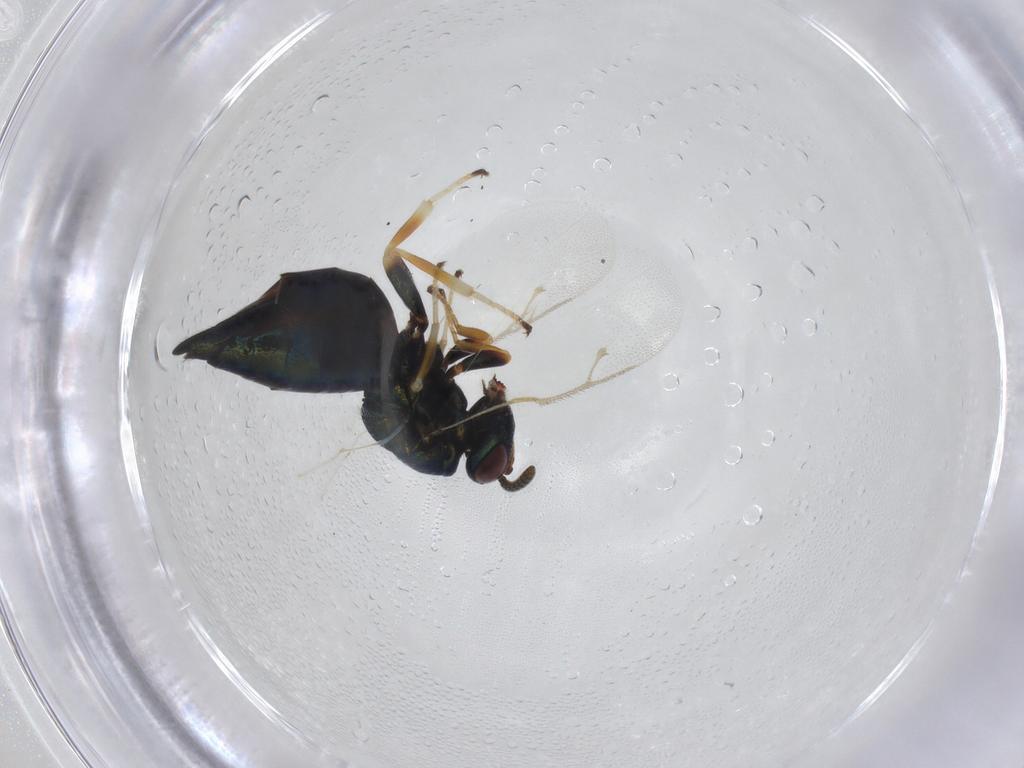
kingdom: Animalia
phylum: Arthropoda
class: Insecta
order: Hymenoptera
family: Pteromalidae
